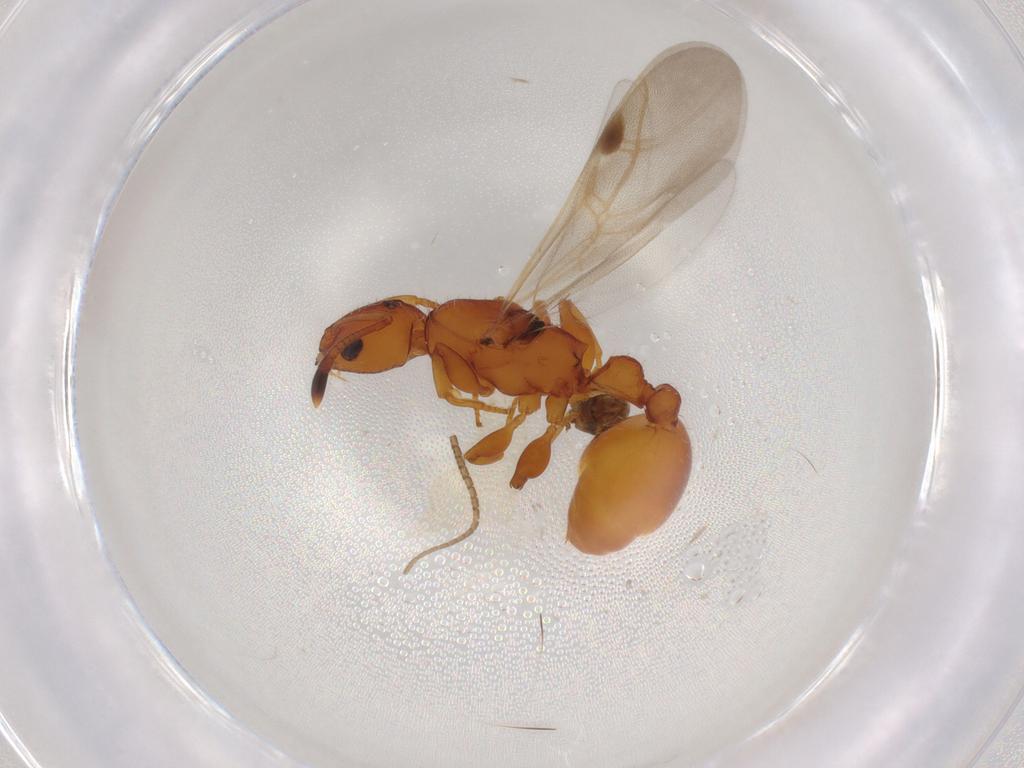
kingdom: Animalia
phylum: Arthropoda
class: Insecta
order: Hymenoptera
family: Formicidae
